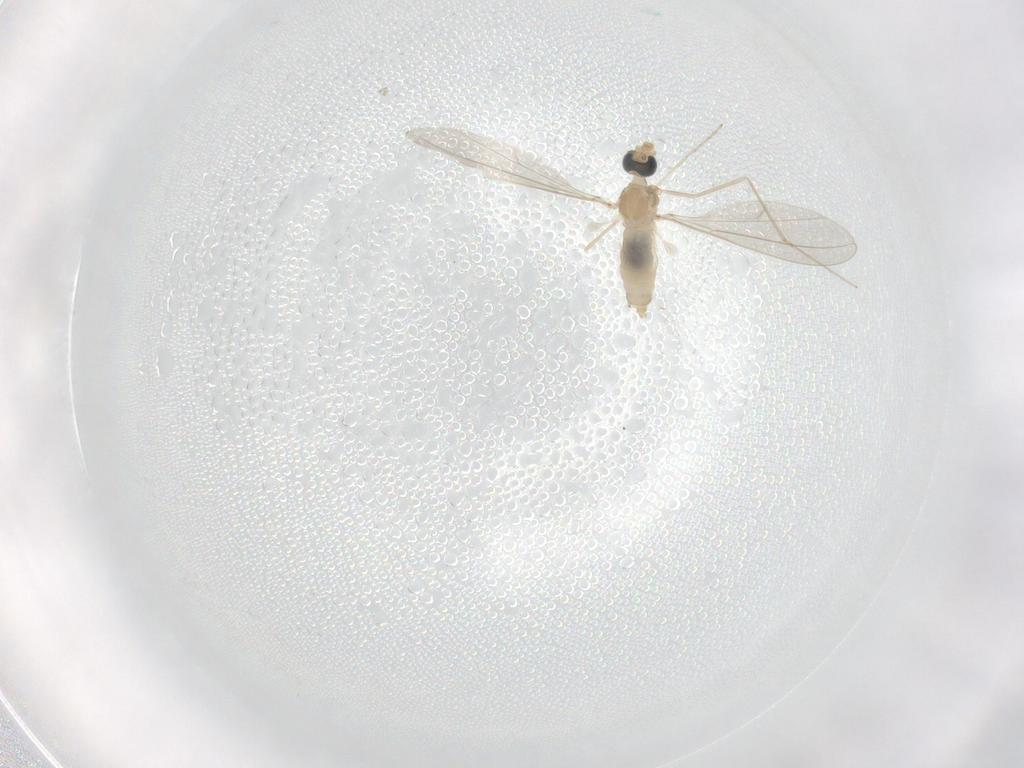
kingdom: Animalia
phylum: Arthropoda
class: Insecta
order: Diptera
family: Cecidomyiidae
